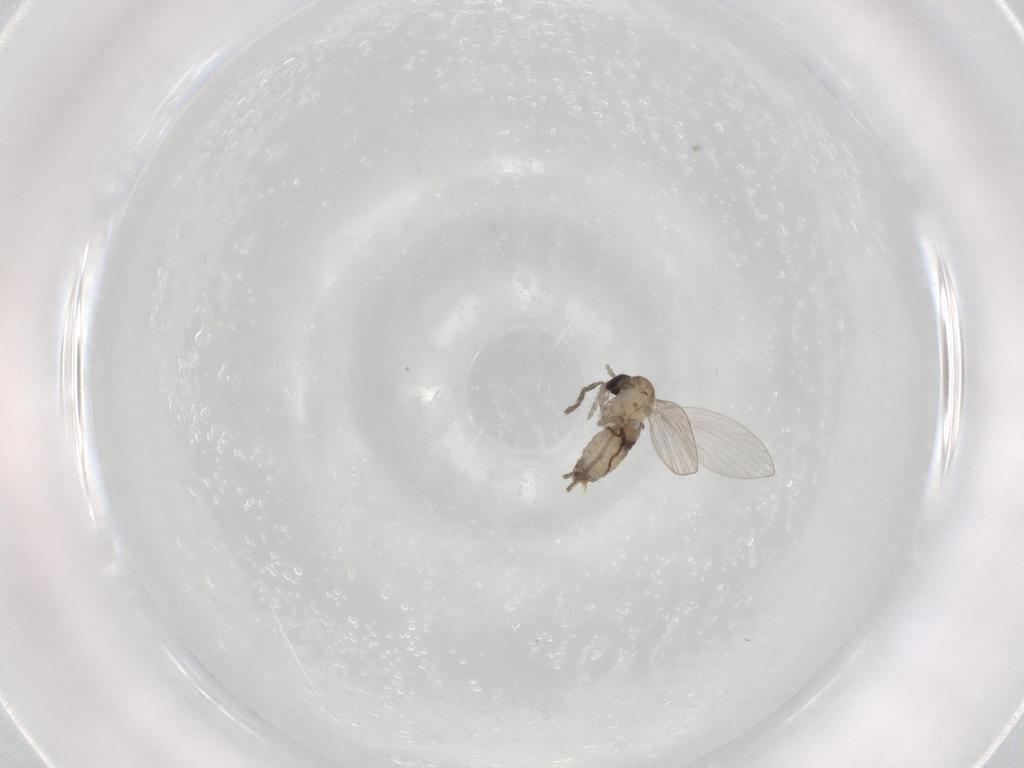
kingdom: Animalia
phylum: Arthropoda
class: Insecta
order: Diptera
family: Psychodidae
